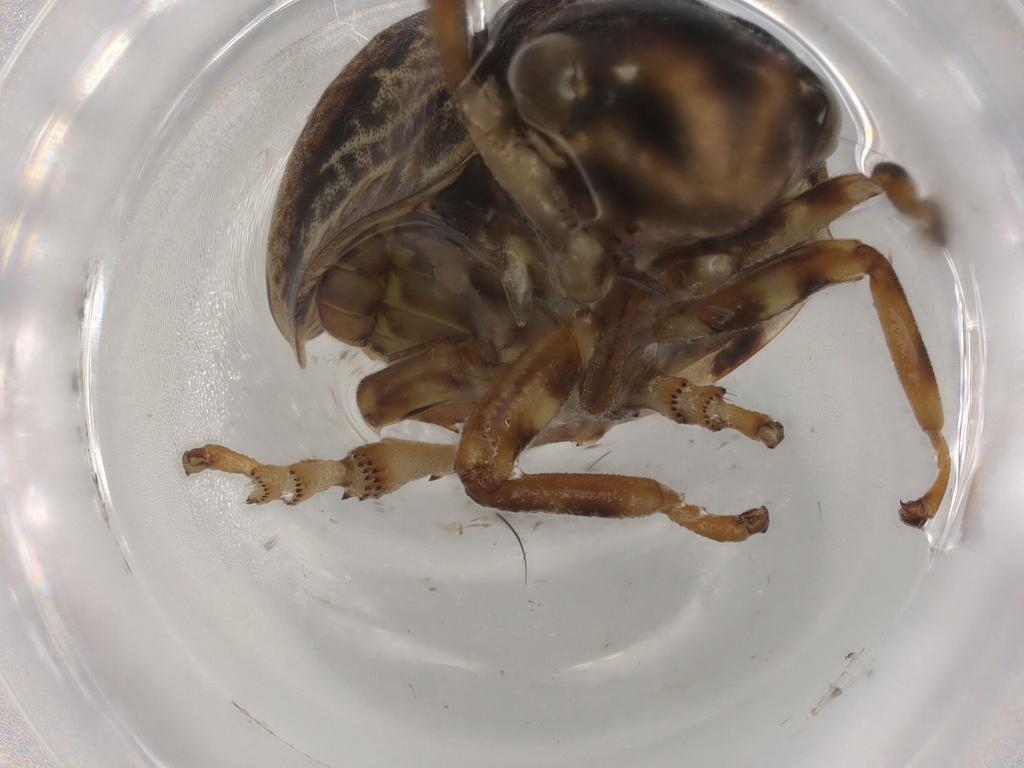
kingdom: Animalia
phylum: Arthropoda
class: Insecta
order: Hemiptera
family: Aphrophoridae
